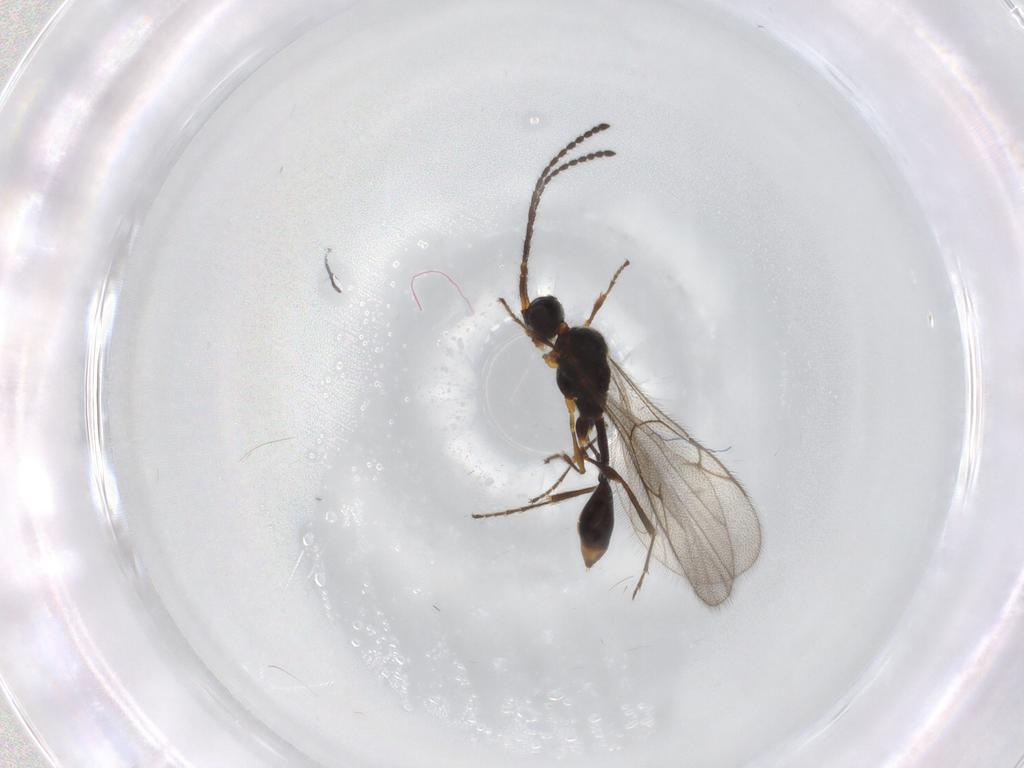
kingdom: Animalia
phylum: Arthropoda
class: Insecta
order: Hymenoptera
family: Diapriidae
